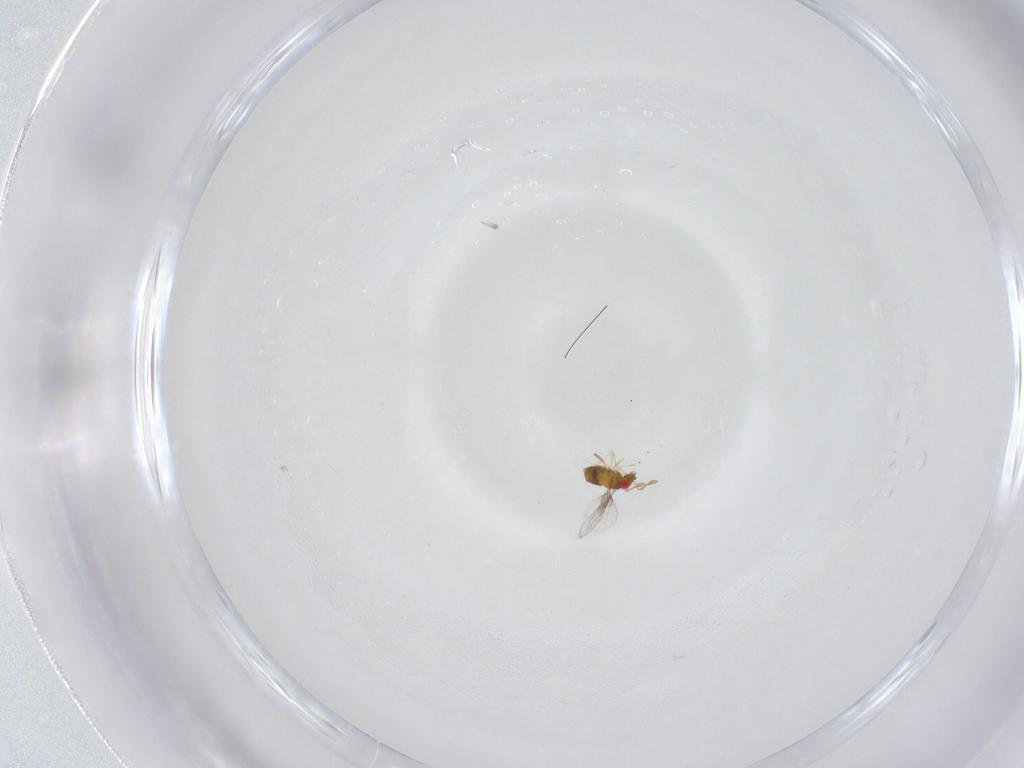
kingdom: Animalia
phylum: Arthropoda
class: Insecta
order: Hymenoptera
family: Trichogrammatidae
